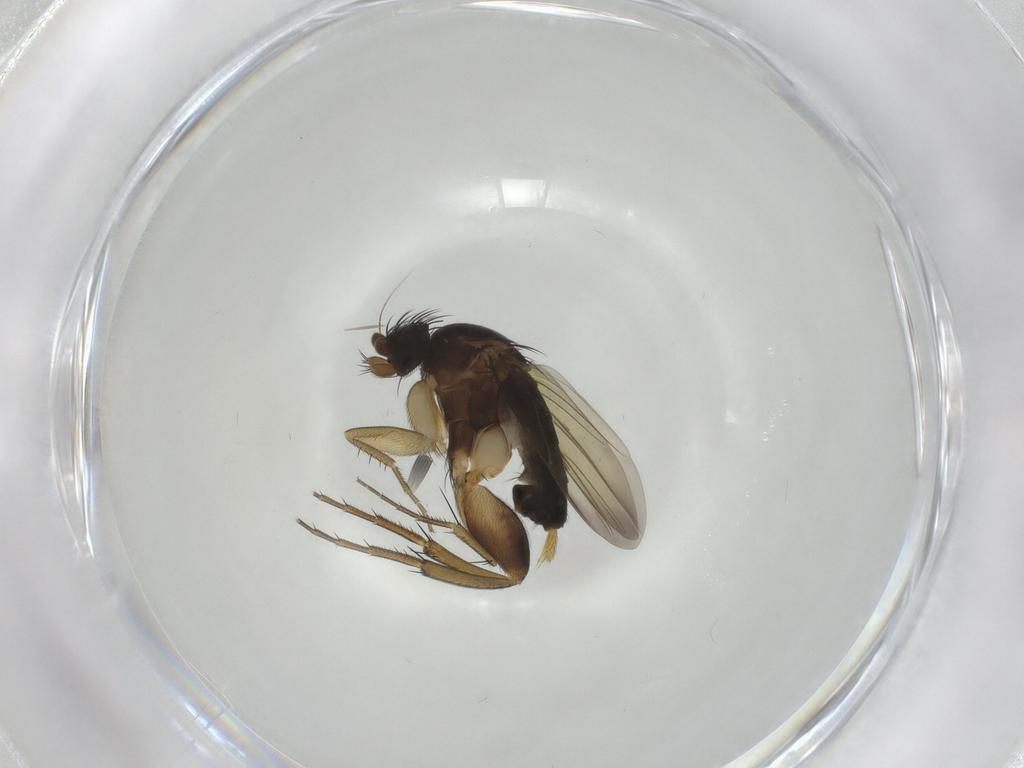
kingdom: Animalia
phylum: Arthropoda
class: Insecta
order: Diptera
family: Phoridae
